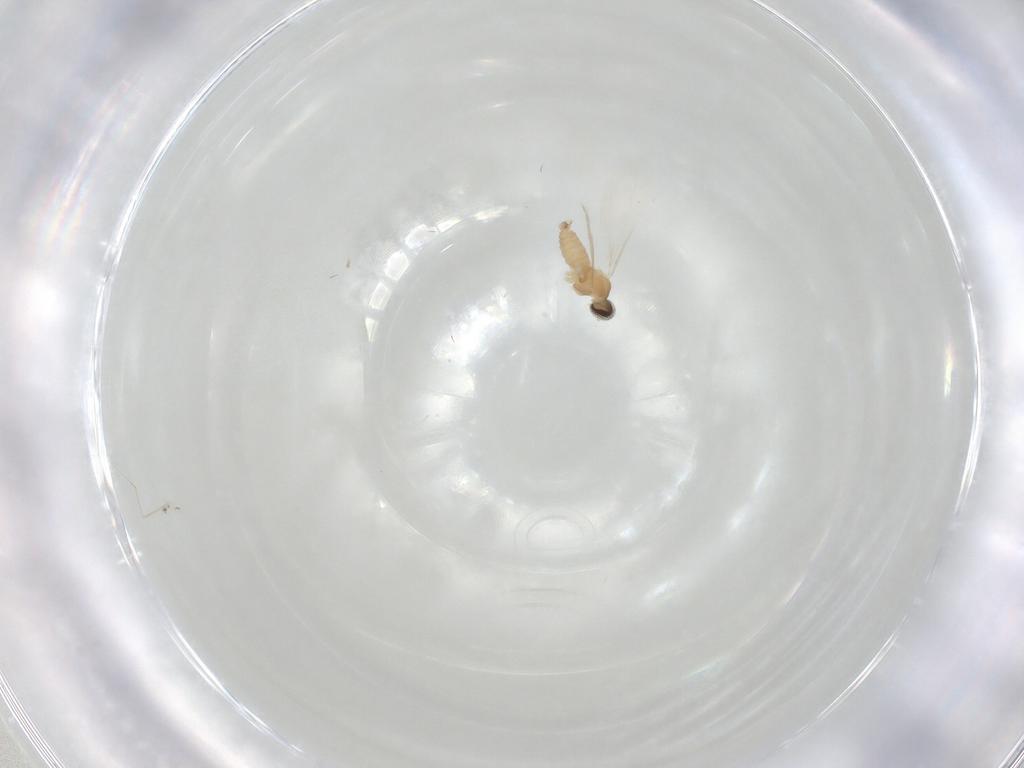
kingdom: Animalia
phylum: Arthropoda
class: Insecta
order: Diptera
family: Cecidomyiidae
